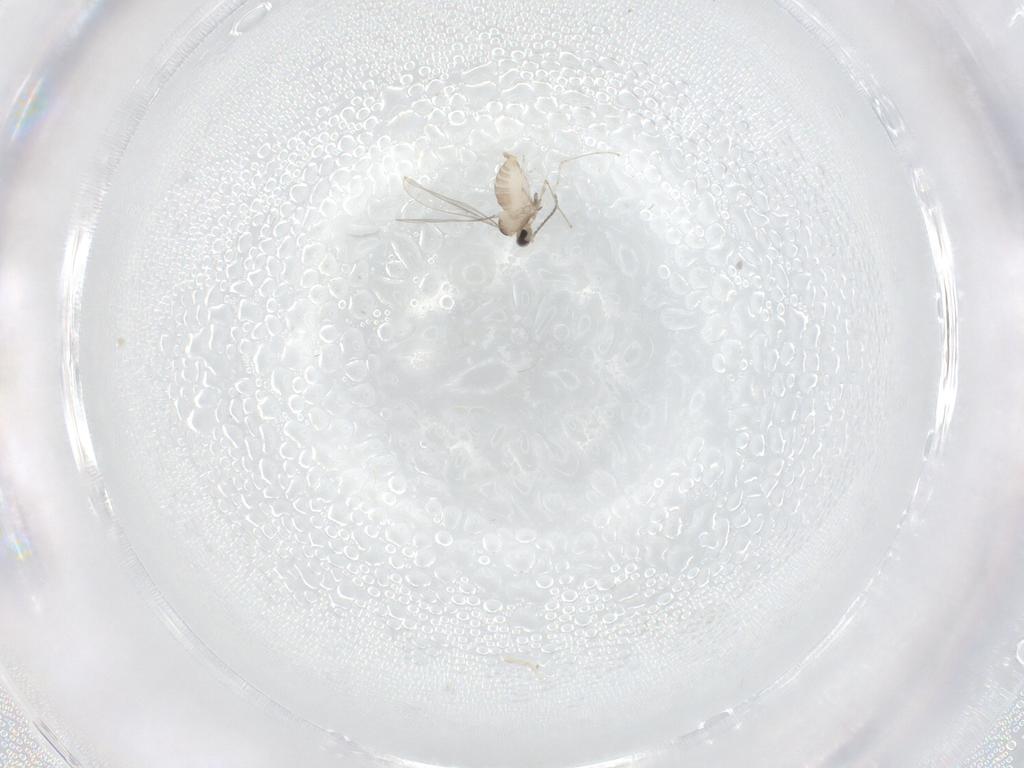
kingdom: Animalia
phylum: Arthropoda
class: Insecta
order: Diptera
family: Cecidomyiidae
